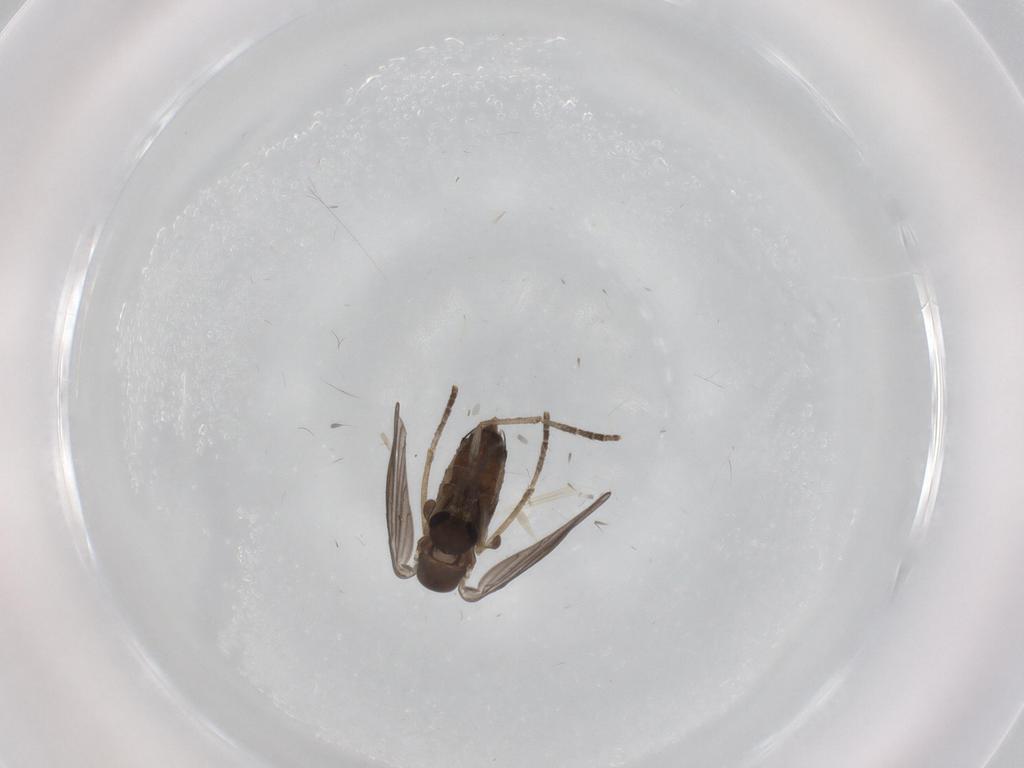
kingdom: Animalia
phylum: Arthropoda
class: Insecta
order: Diptera
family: Phoridae
